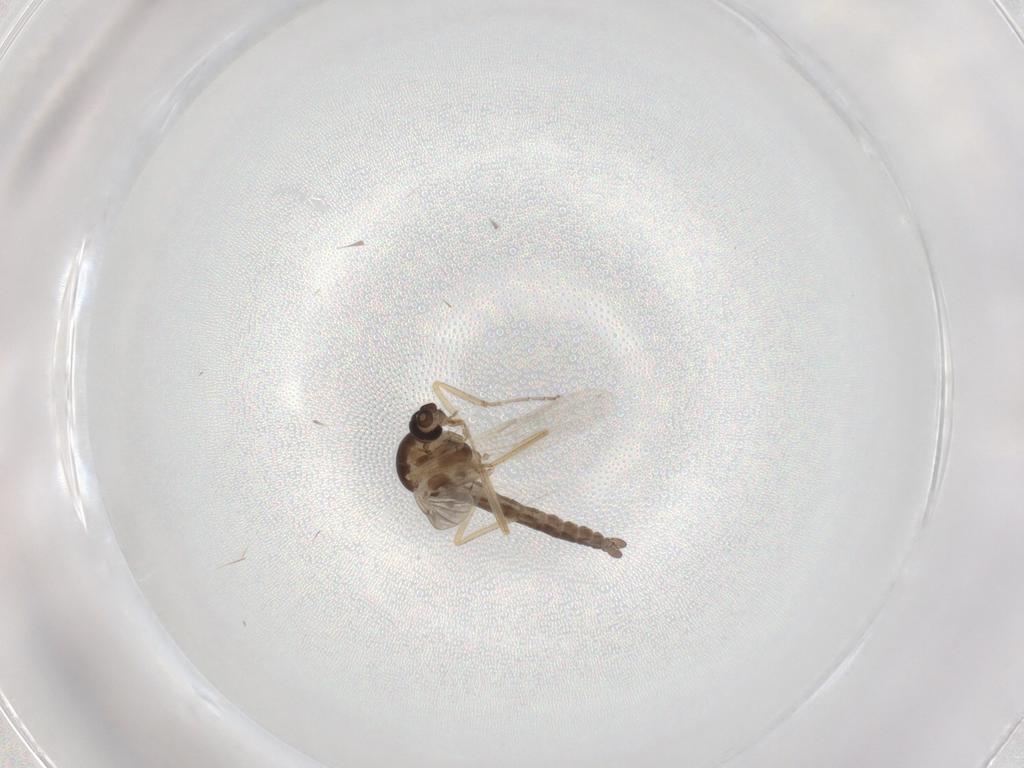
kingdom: Animalia
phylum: Arthropoda
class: Insecta
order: Diptera
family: Ceratopogonidae
